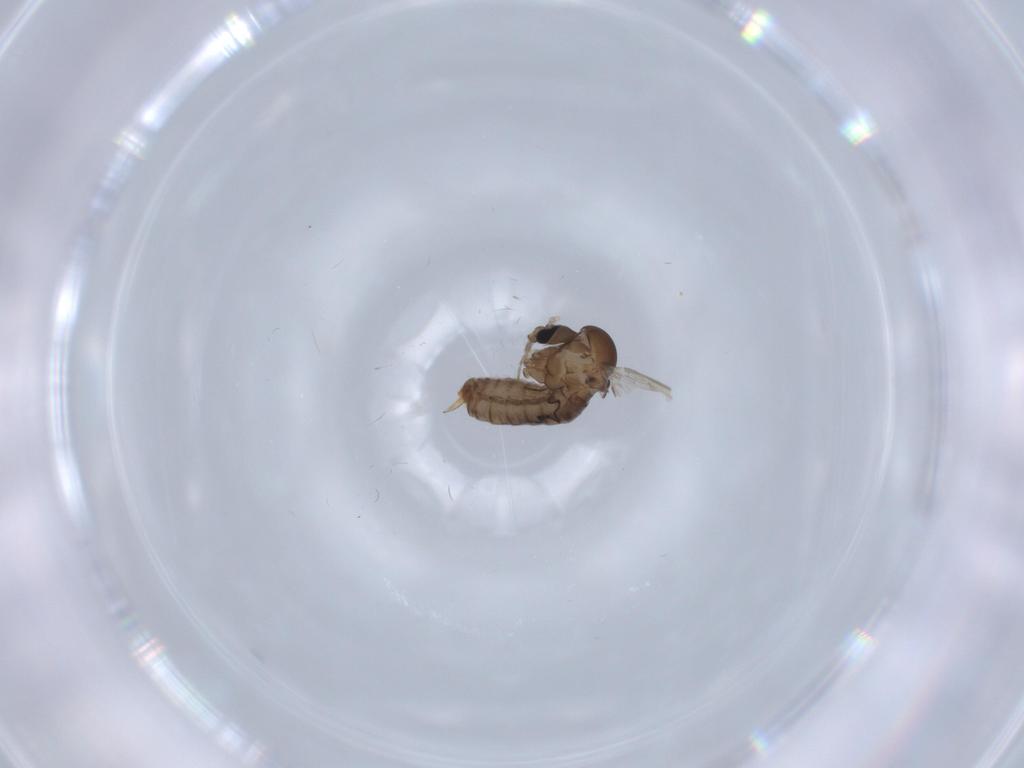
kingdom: Animalia
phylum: Arthropoda
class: Insecta
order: Diptera
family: Psychodidae
